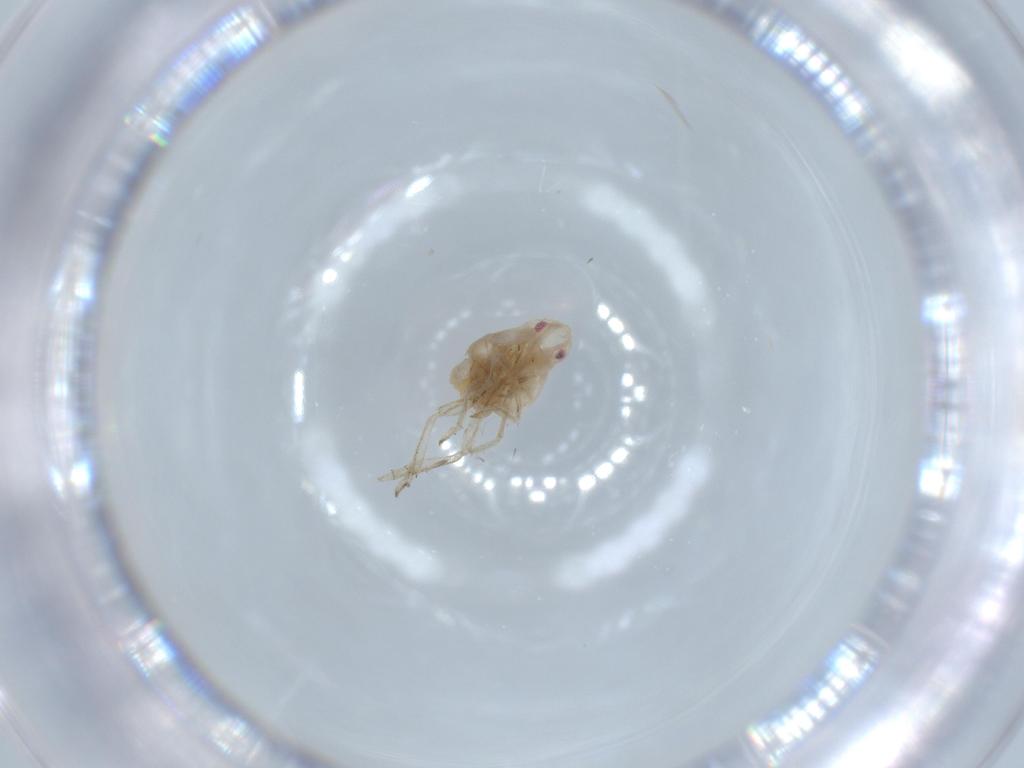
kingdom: Animalia
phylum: Arthropoda
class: Insecta
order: Hemiptera
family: Flatidae
